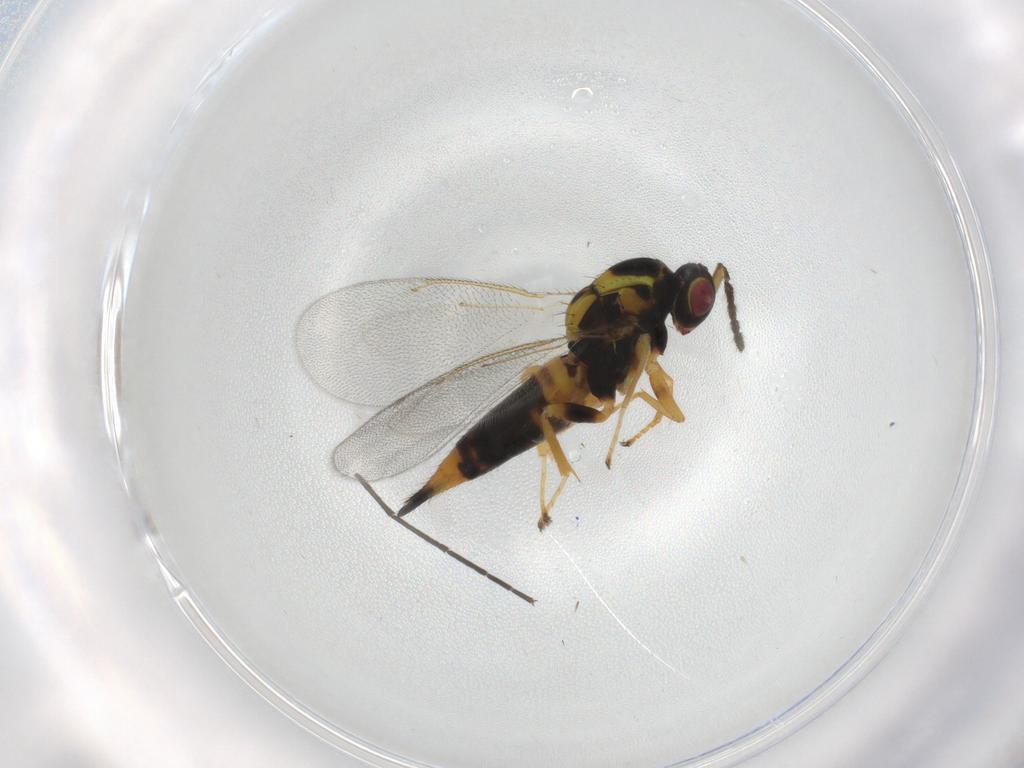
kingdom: Animalia
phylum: Arthropoda
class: Insecta
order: Hymenoptera
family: Eulophidae
